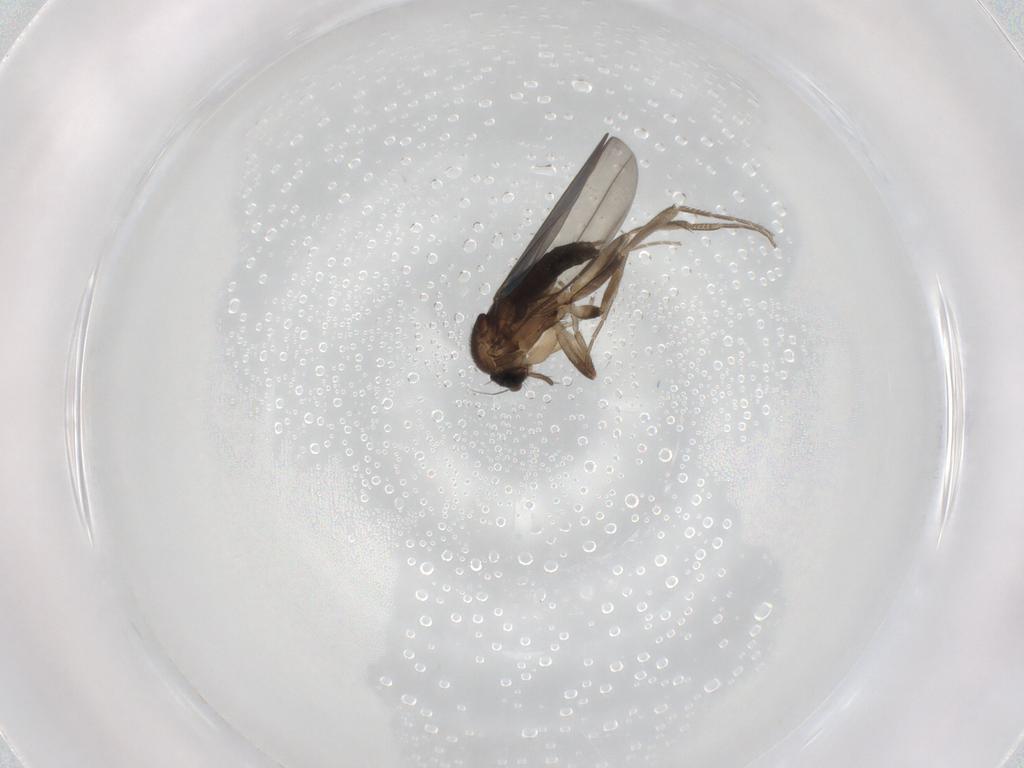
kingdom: Animalia
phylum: Arthropoda
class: Insecta
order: Diptera
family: Phoridae
